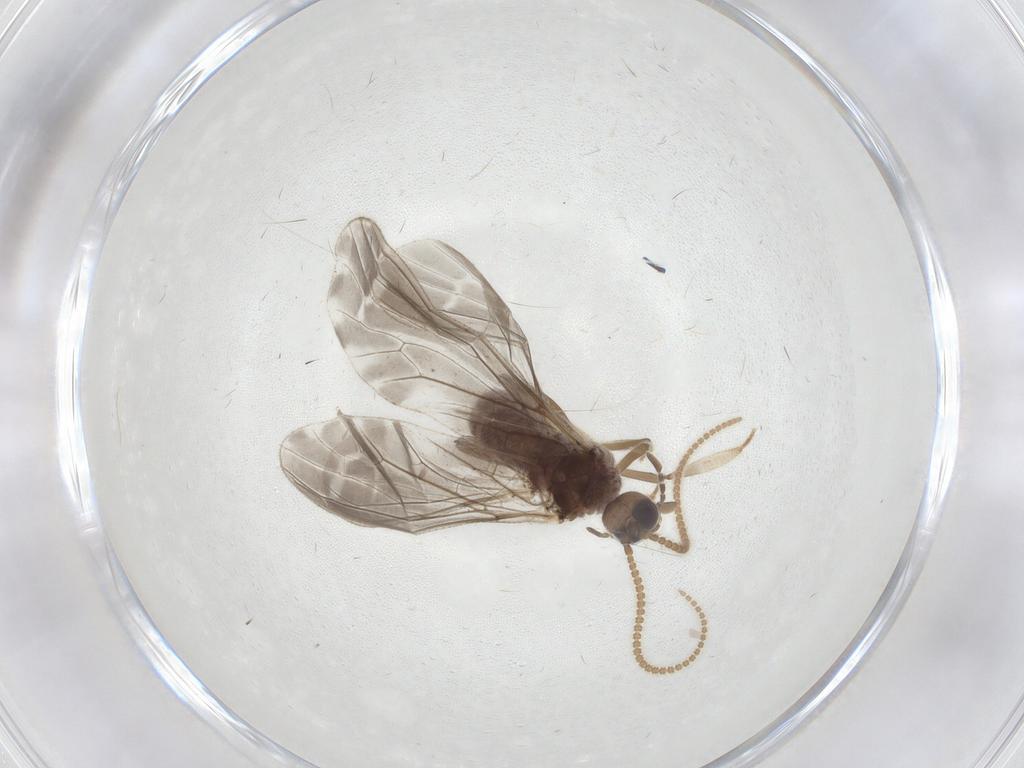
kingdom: Animalia
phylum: Arthropoda
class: Insecta
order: Neuroptera
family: Coniopterygidae
